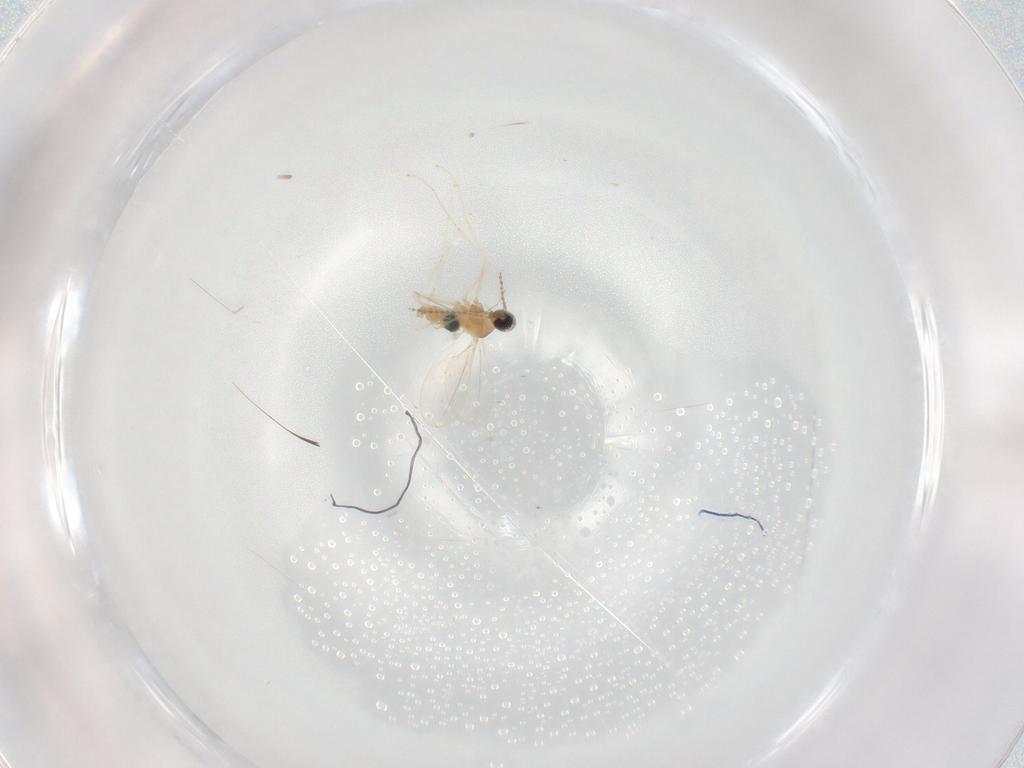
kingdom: Animalia
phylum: Arthropoda
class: Insecta
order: Diptera
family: Cecidomyiidae
